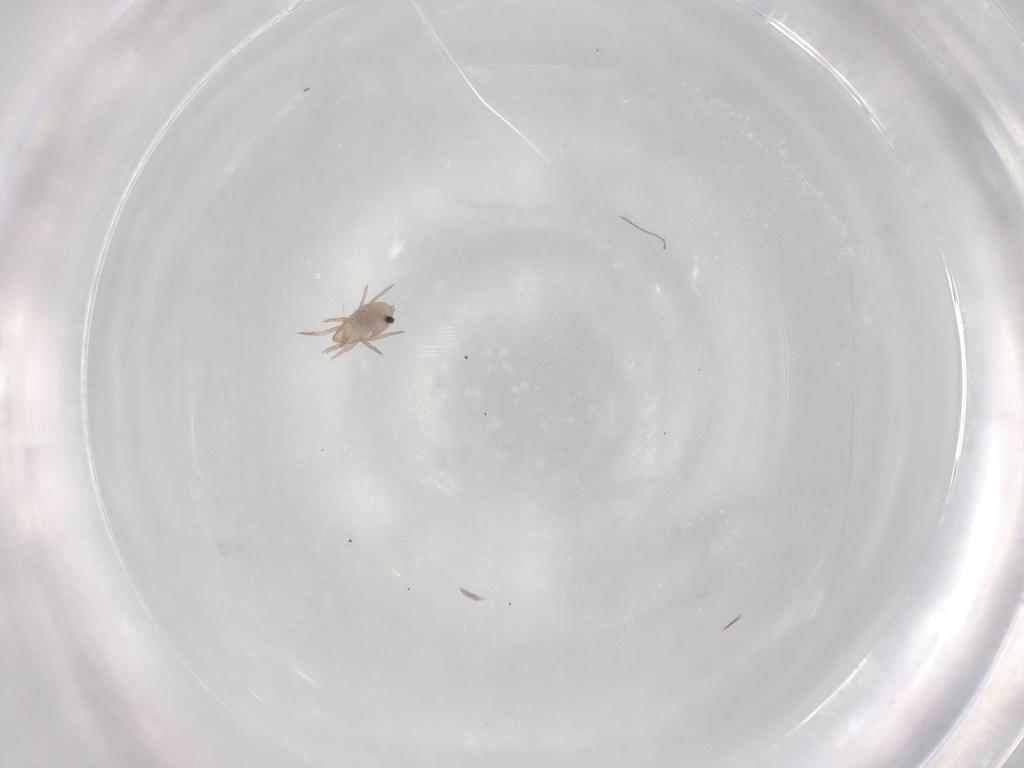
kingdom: Animalia
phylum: Arthropoda
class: Arachnida
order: Sarcoptiformes
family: Ceratoppiidae
